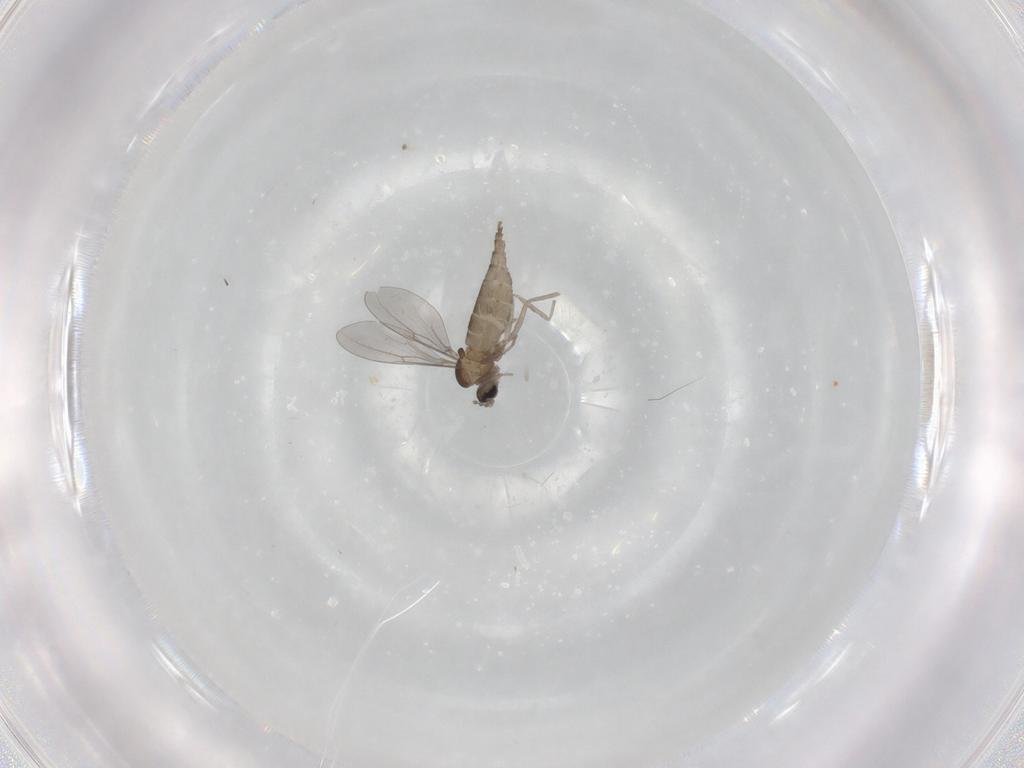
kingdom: Animalia
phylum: Arthropoda
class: Insecta
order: Diptera
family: Cecidomyiidae
